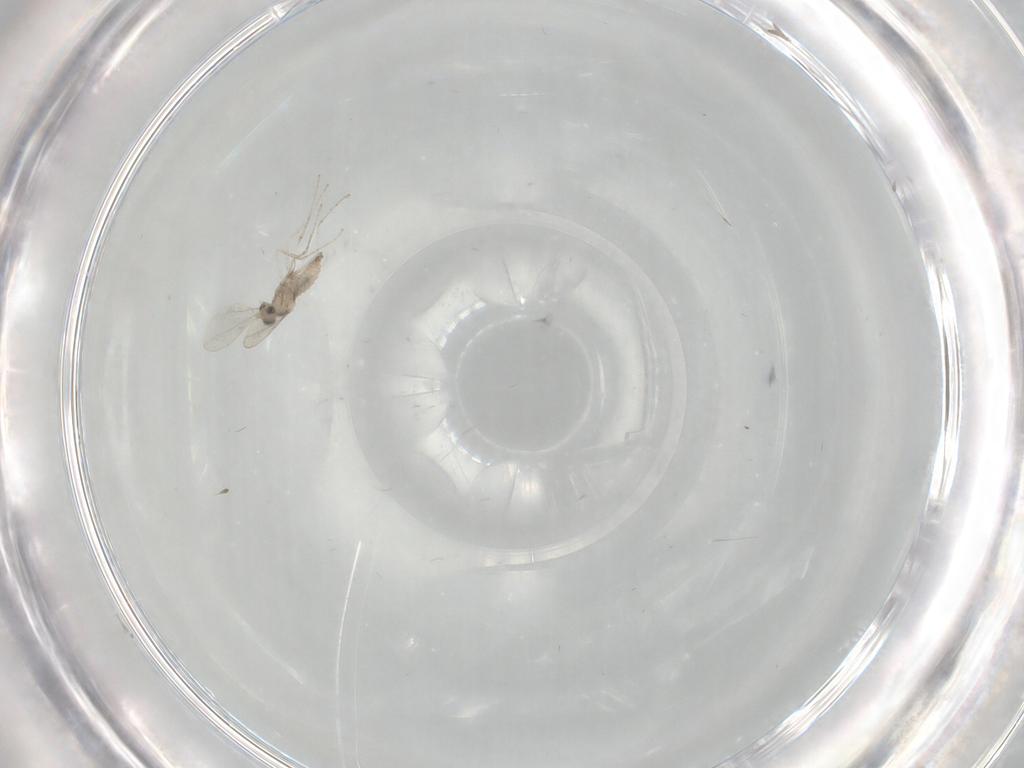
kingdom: Animalia
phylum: Arthropoda
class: Insecta
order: Diptera
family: Cecidomyiidae
